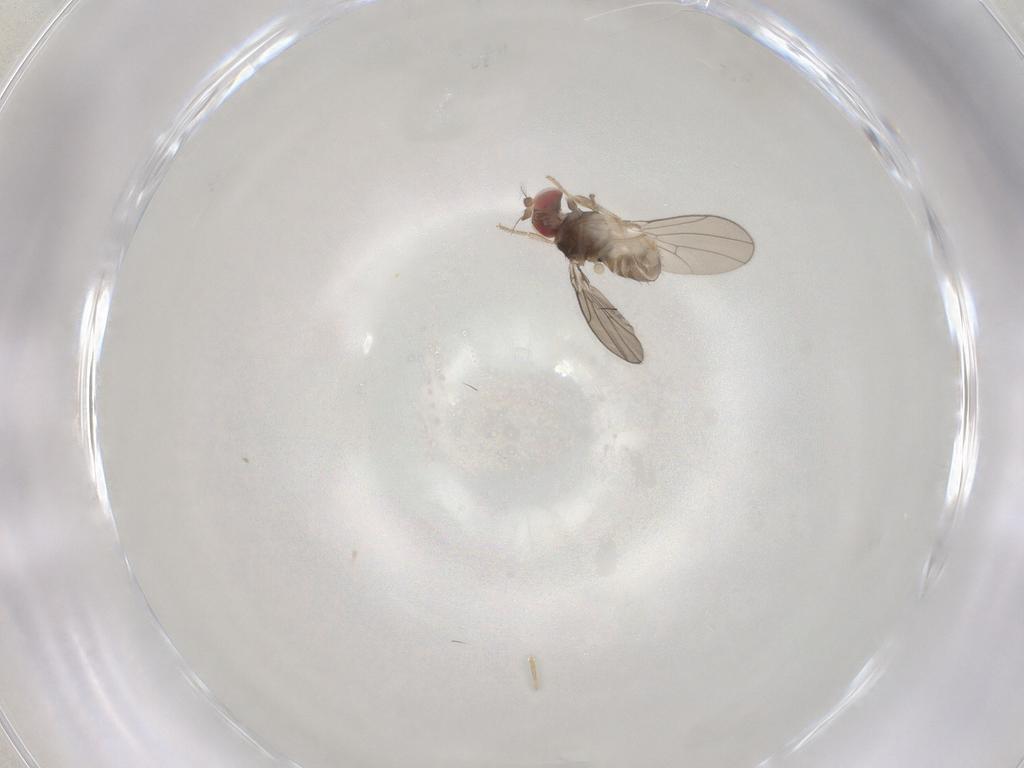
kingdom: Animalia
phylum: Arthropoda
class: Insecta
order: Diptera
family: Drosophilidae
